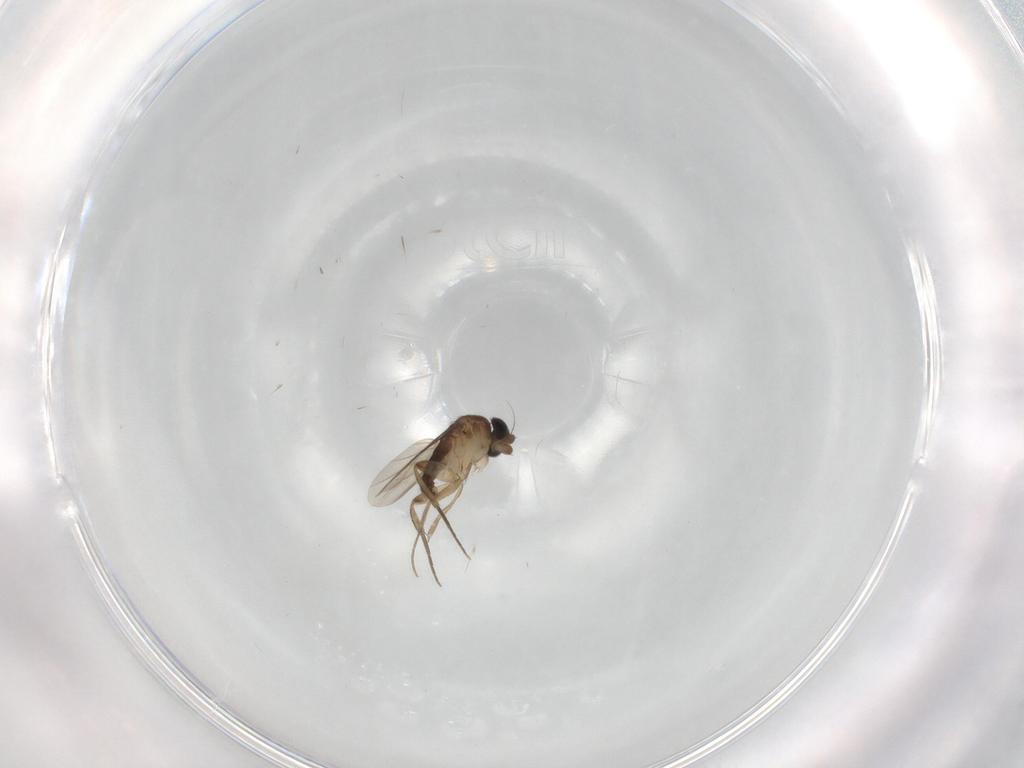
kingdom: Animalia
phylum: Arthropoda
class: Insecta
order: Diptera
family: Phoridae
